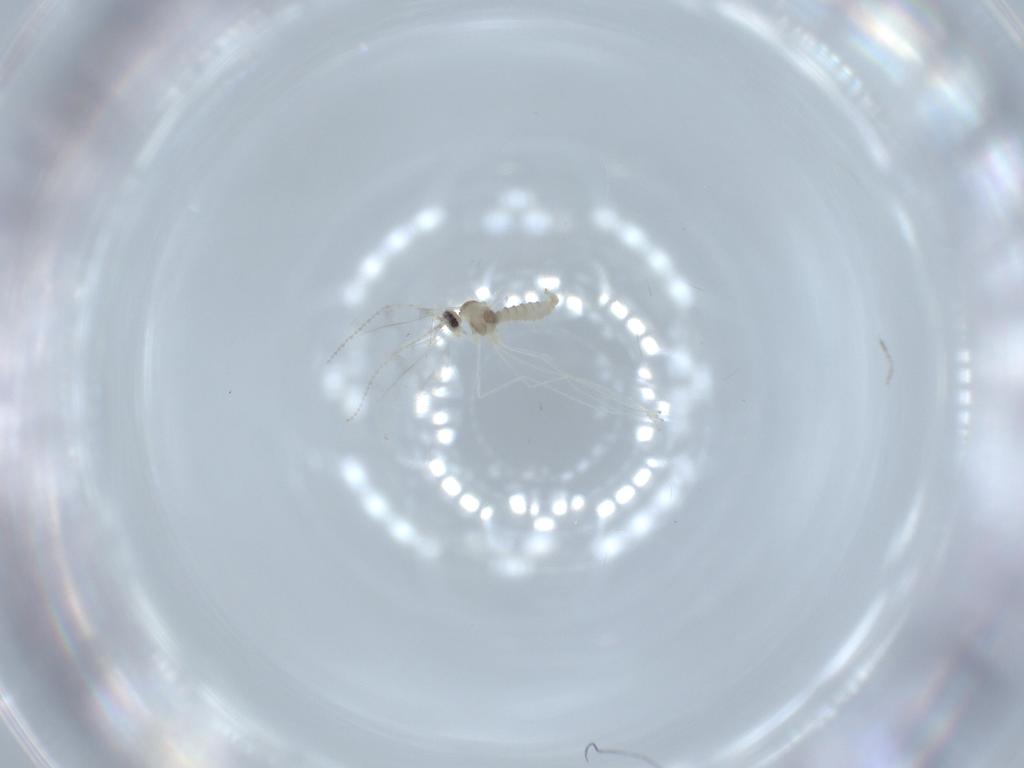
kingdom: Animalia
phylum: Arthropoda
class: Insecta
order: Diptera
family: Cecidomyiidae
